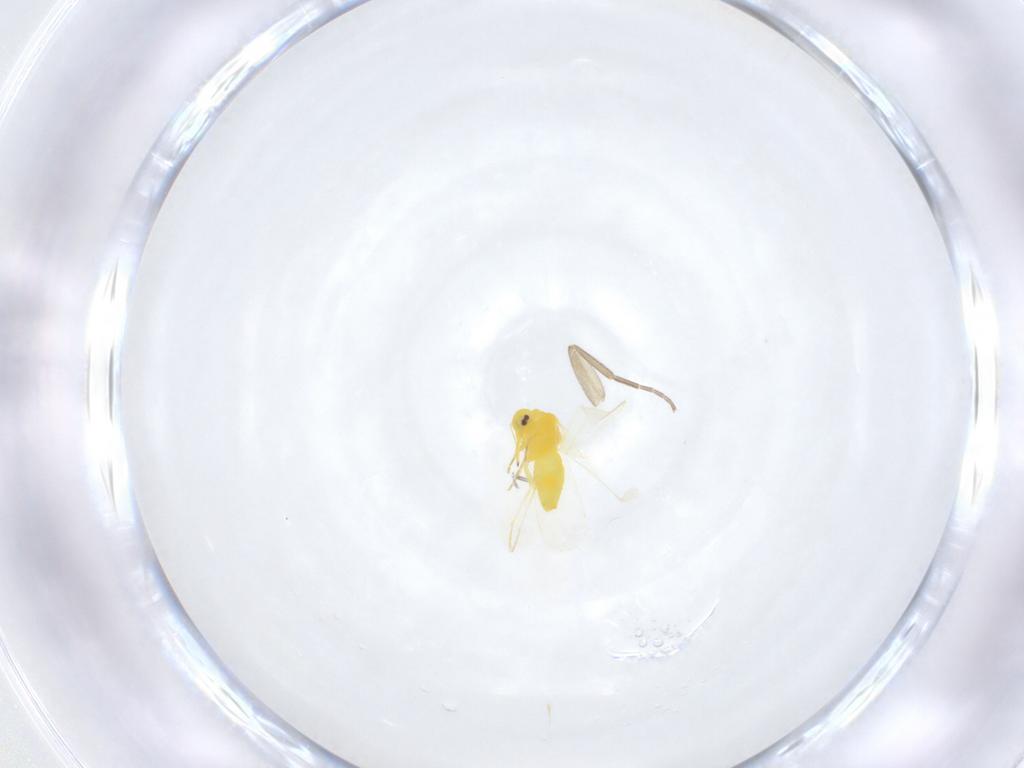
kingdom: Animalia
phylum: Arthropoda
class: Insecta
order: Hemiptera
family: Aleyrodidae
